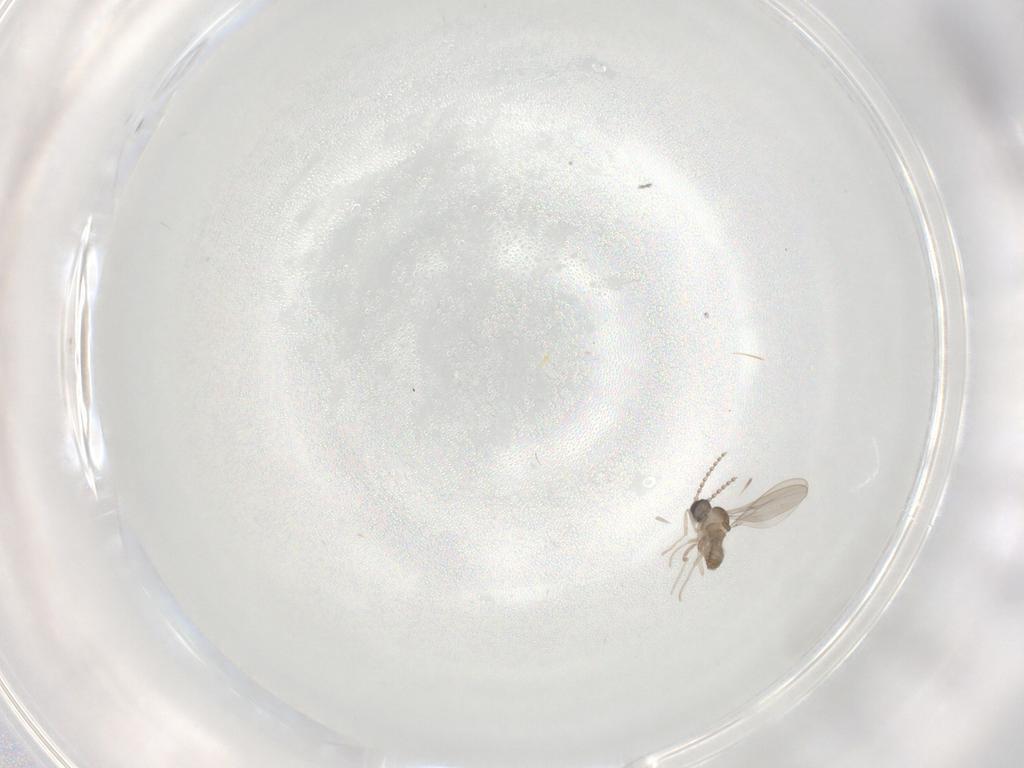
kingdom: Animalia
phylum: Arthropoda
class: Insecta
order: Diptera
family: Cecidomyiidae
